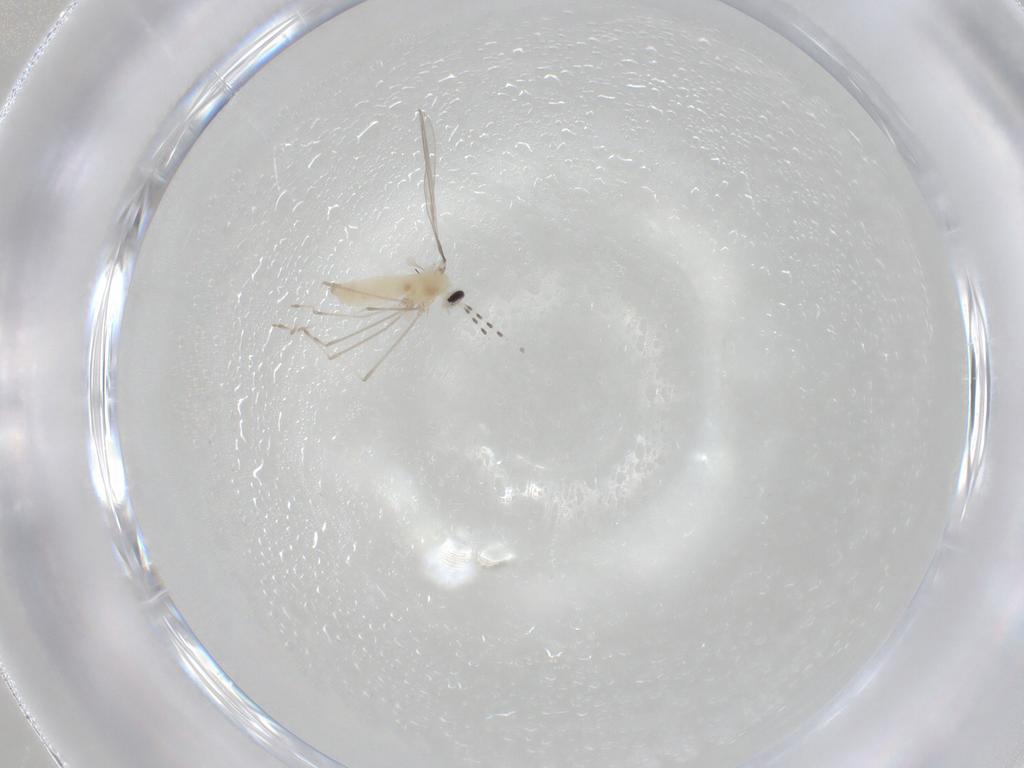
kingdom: Animalia
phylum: Arthropoda
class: Insecta
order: Diptera
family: Cecidomyiidae
